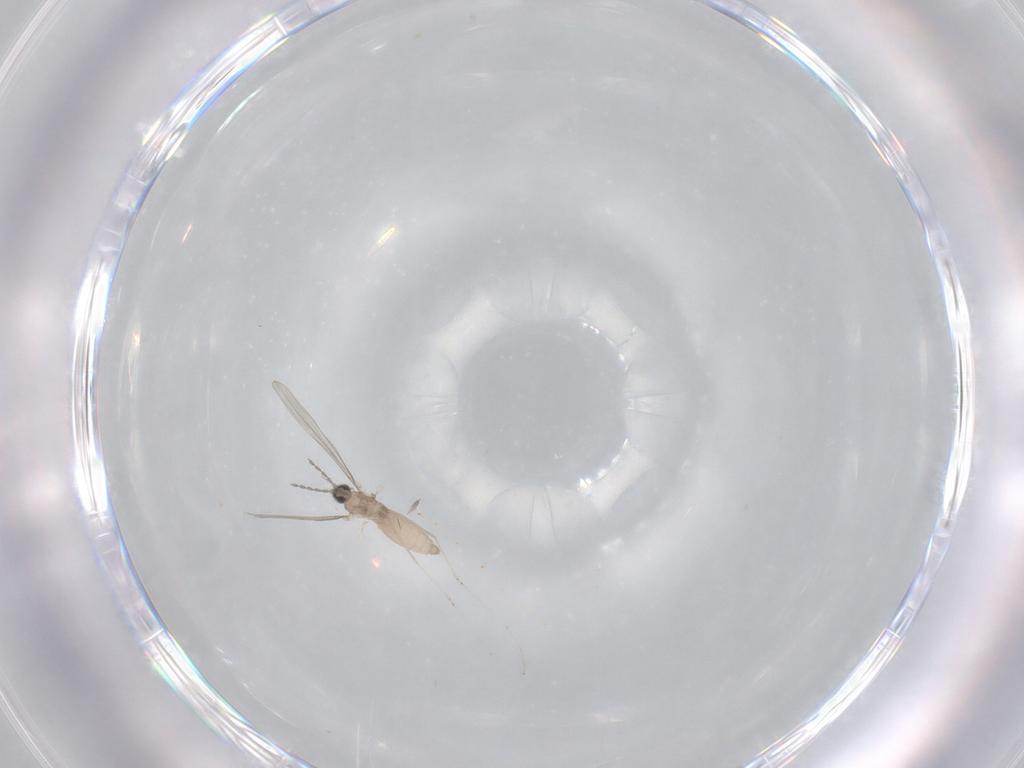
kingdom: Animalia
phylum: Arthropoda
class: Insecta
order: Diptera
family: Cecidomyiidae
